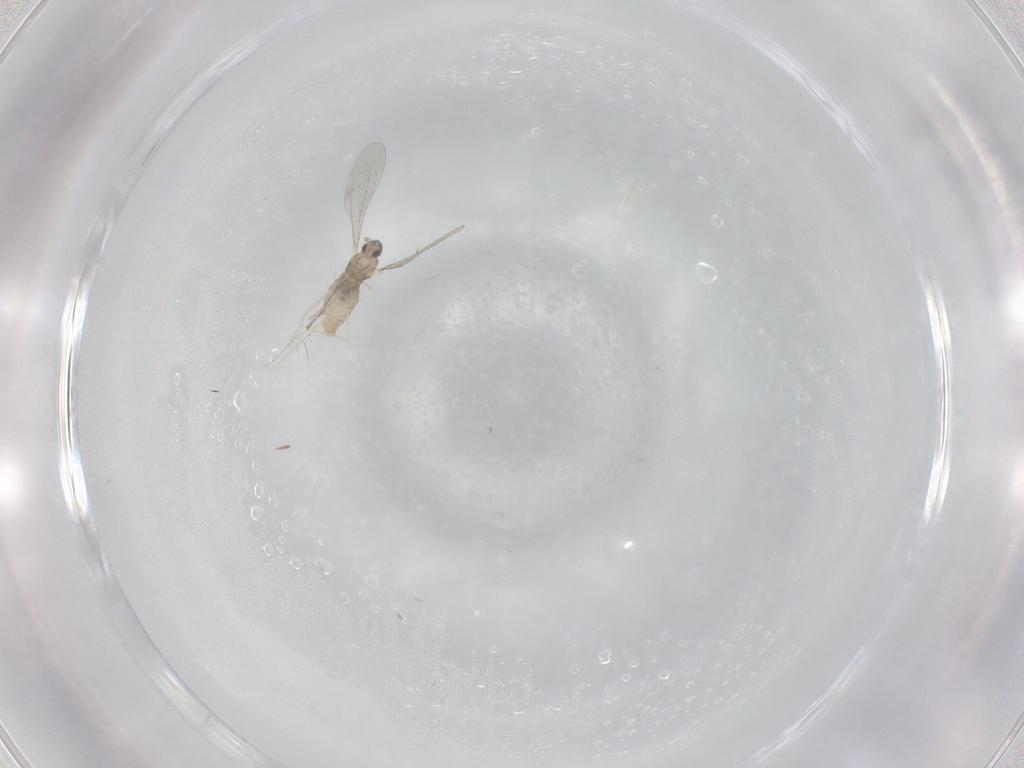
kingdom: Animalia
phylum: Arthropoda
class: Insecta
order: Diptera
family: Cecidomyiidae
